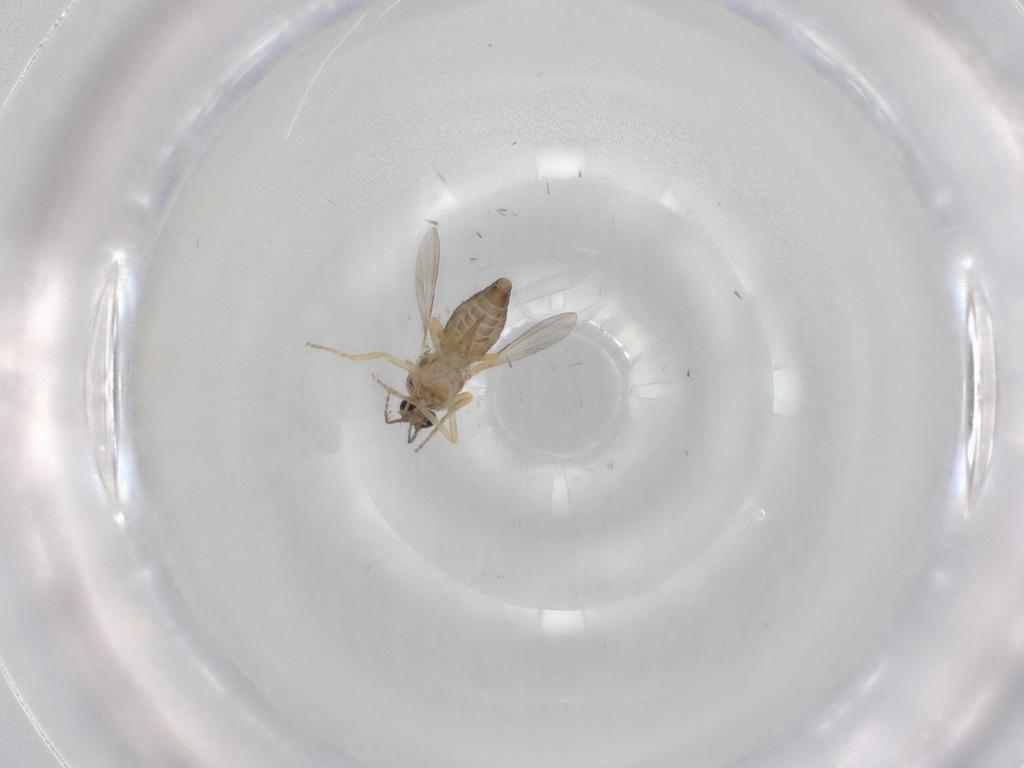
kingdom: Animalia
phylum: Arthropoda
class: Insecta
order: Diptera
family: Ceratopogonidae
